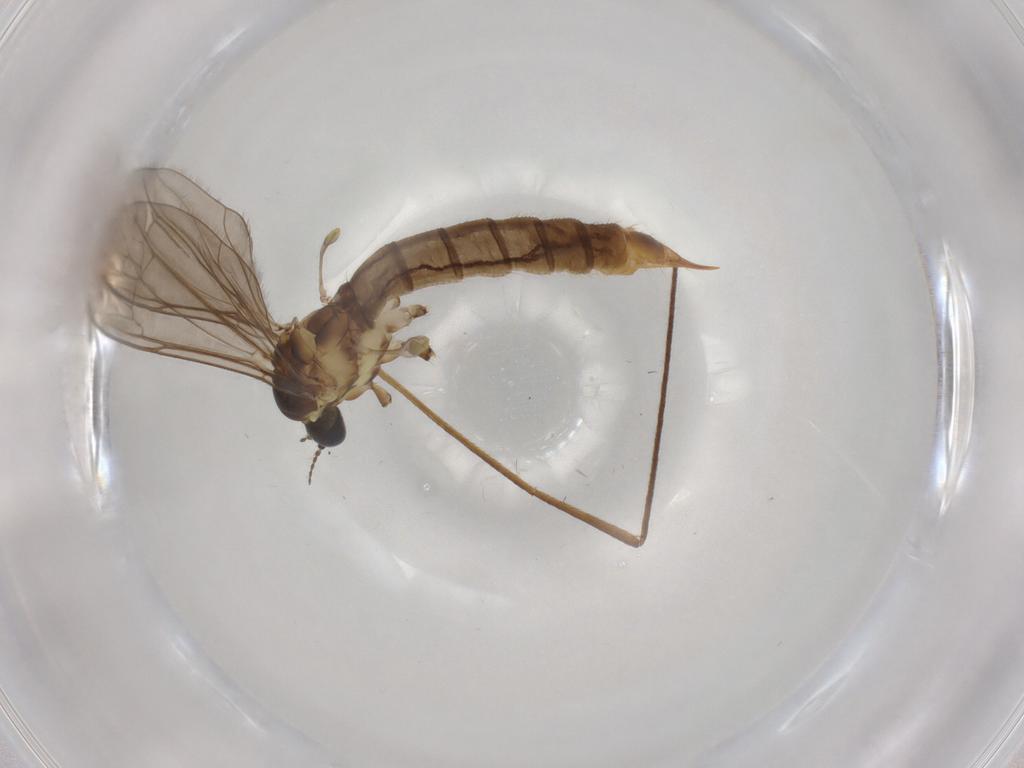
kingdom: Animalia
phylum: Arthropoda
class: Insecta
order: Diptera
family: Limoniidae
